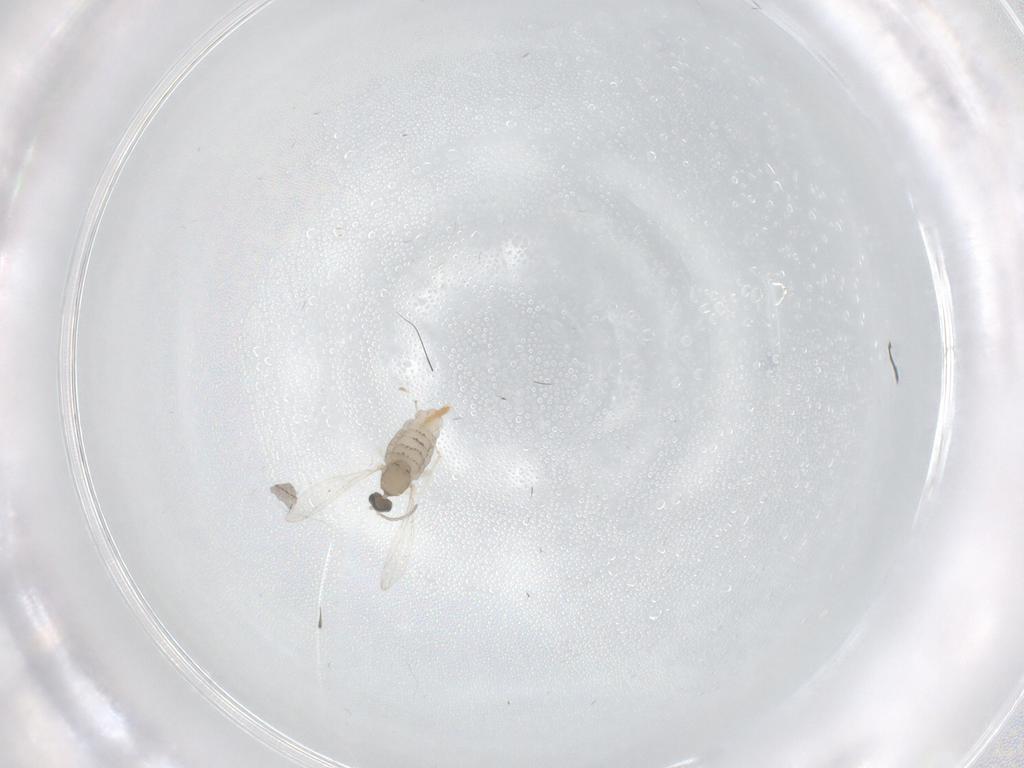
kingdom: Animalia
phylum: Arthropoda
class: Insecta
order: Diptera
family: Cecidomyiidae
